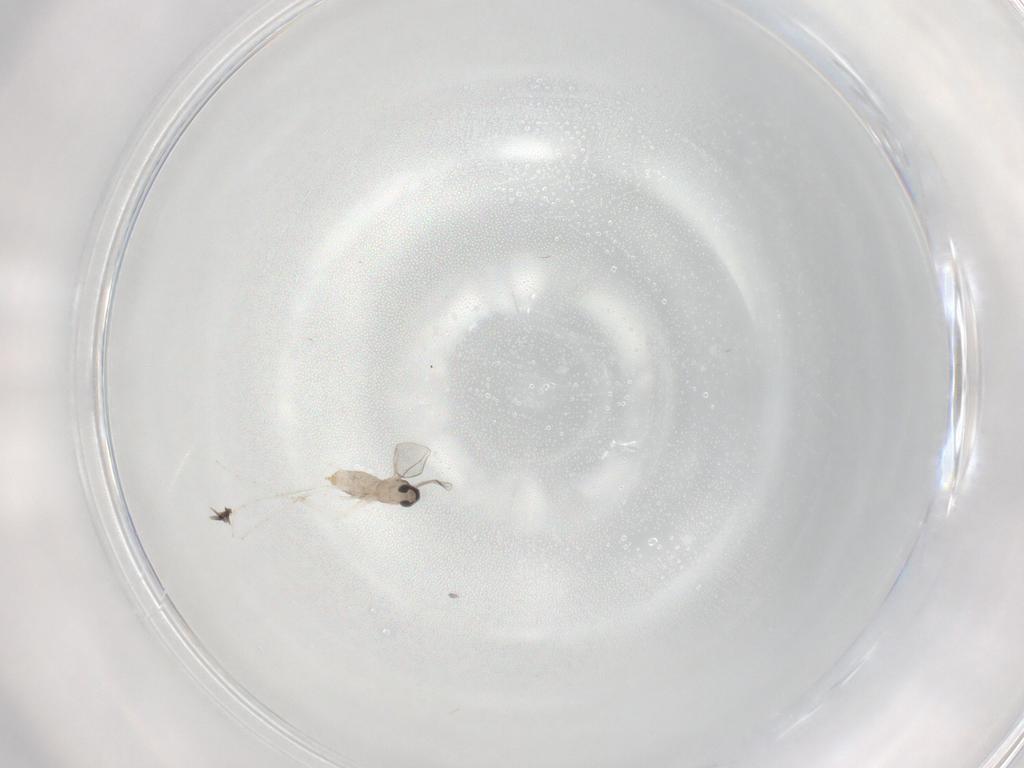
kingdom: Animalia
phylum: Arthropoda
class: Insecta
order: Diptera
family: Cecidomyiidae
